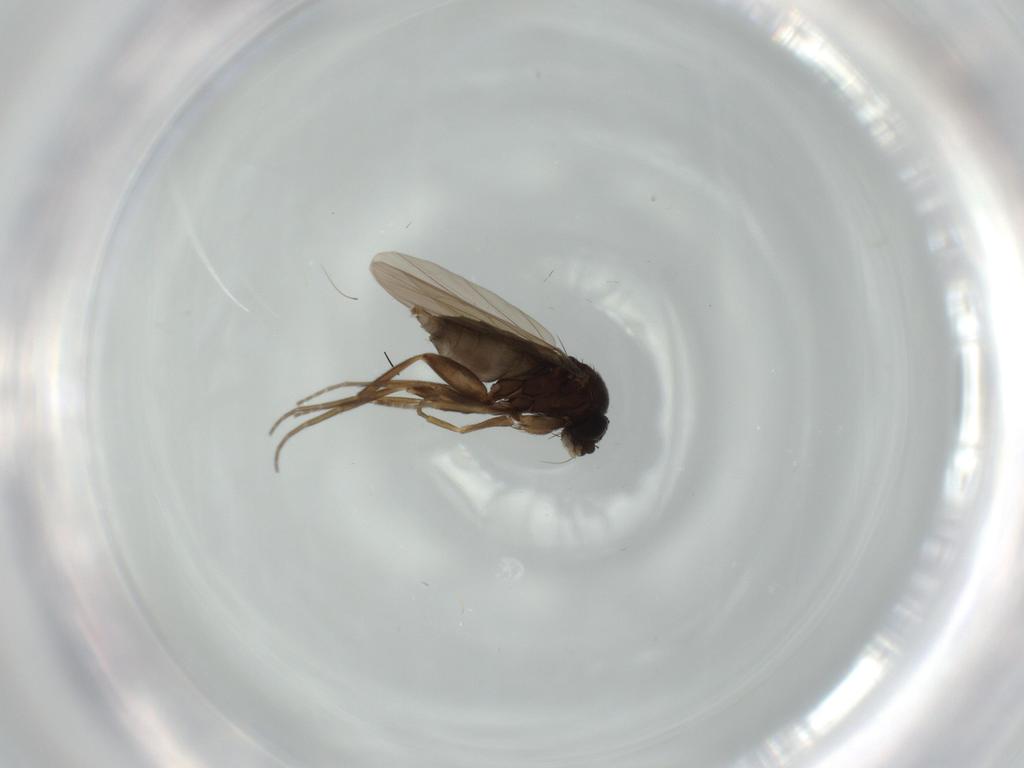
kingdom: Animalia
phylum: Arthropoda
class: Insecta
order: Diptera
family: Phoridae
